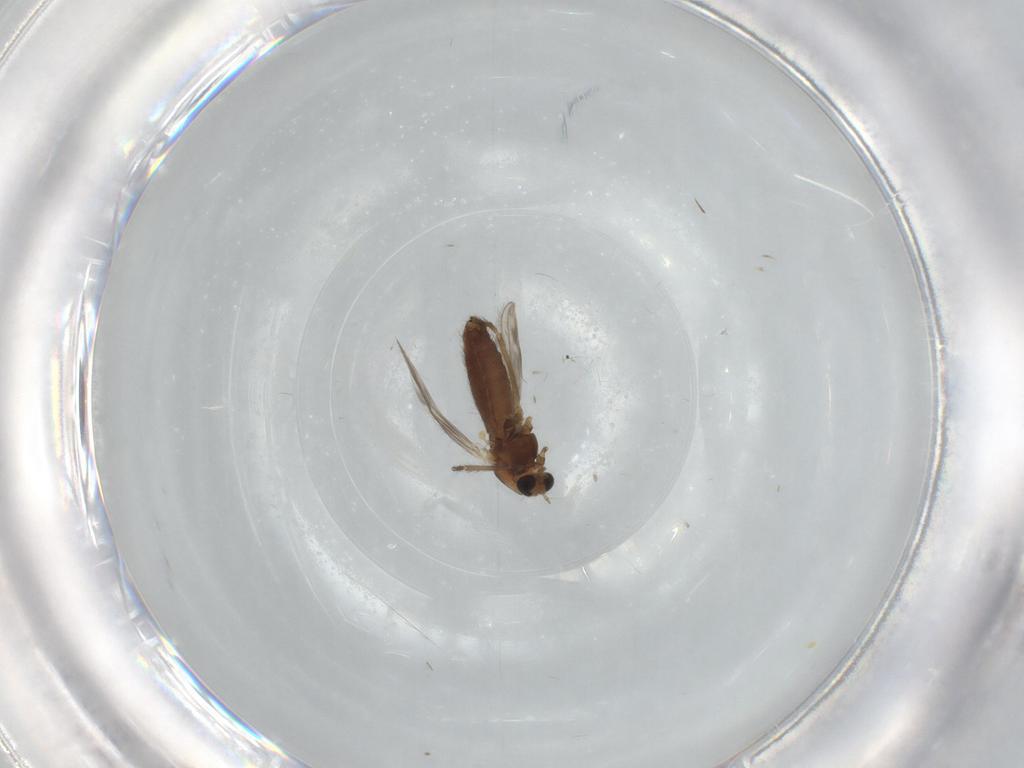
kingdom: Animalia
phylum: Arthropoda
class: Insecta
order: Diptera
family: Chironomidae
